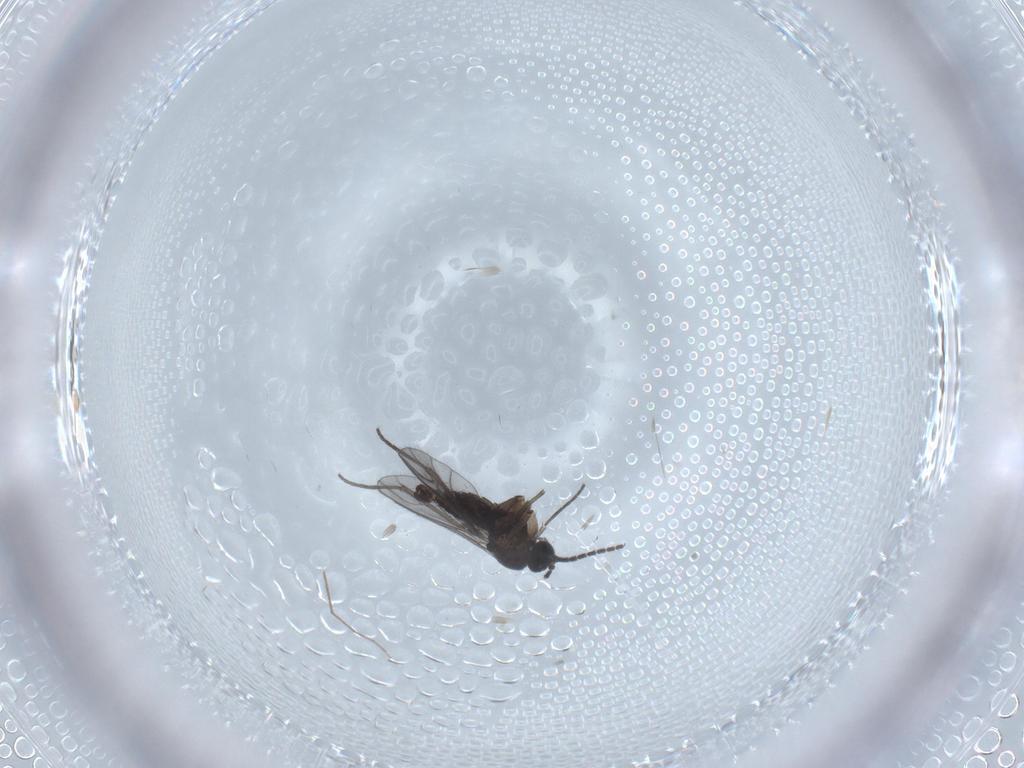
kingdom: Animalia
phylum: Arthropoda
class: Insecta
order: Diptera
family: Sciaridae
